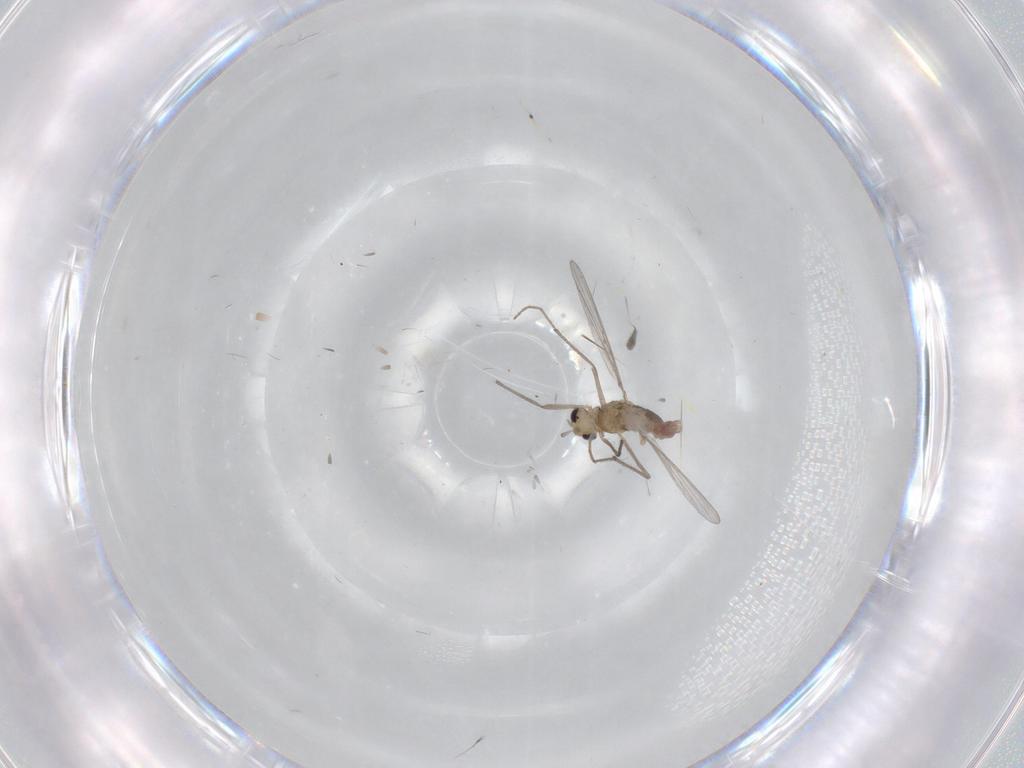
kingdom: Animalia
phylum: Arthropoda
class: Insecta
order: Diptera
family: Chironomidae
